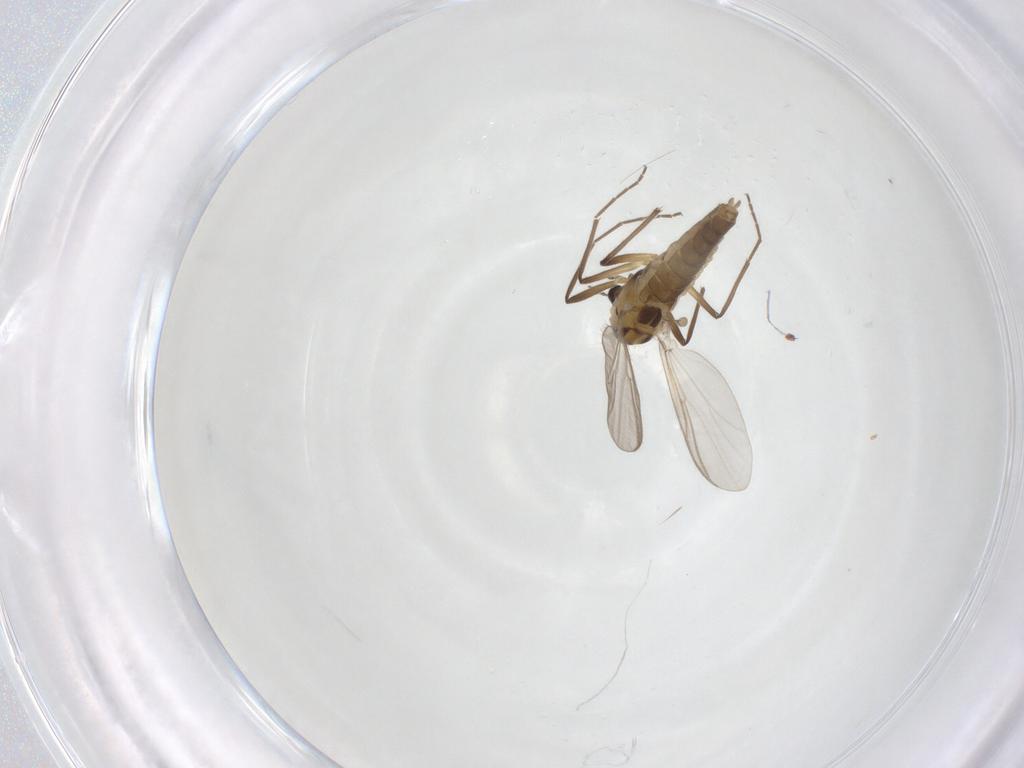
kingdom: Animalia
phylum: Arthropoda
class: Insecta
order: Diptera
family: Chironomidae
